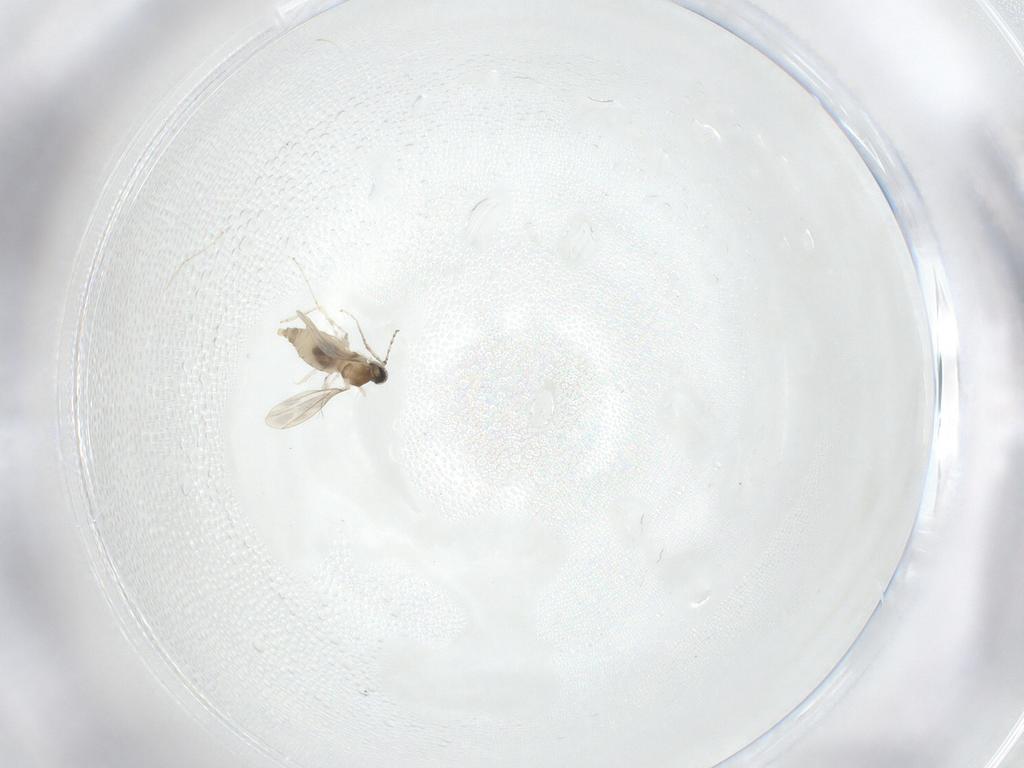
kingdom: Animalia
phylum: Arthropoda
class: Insecta
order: Diptera
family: Cecidomyiidae
